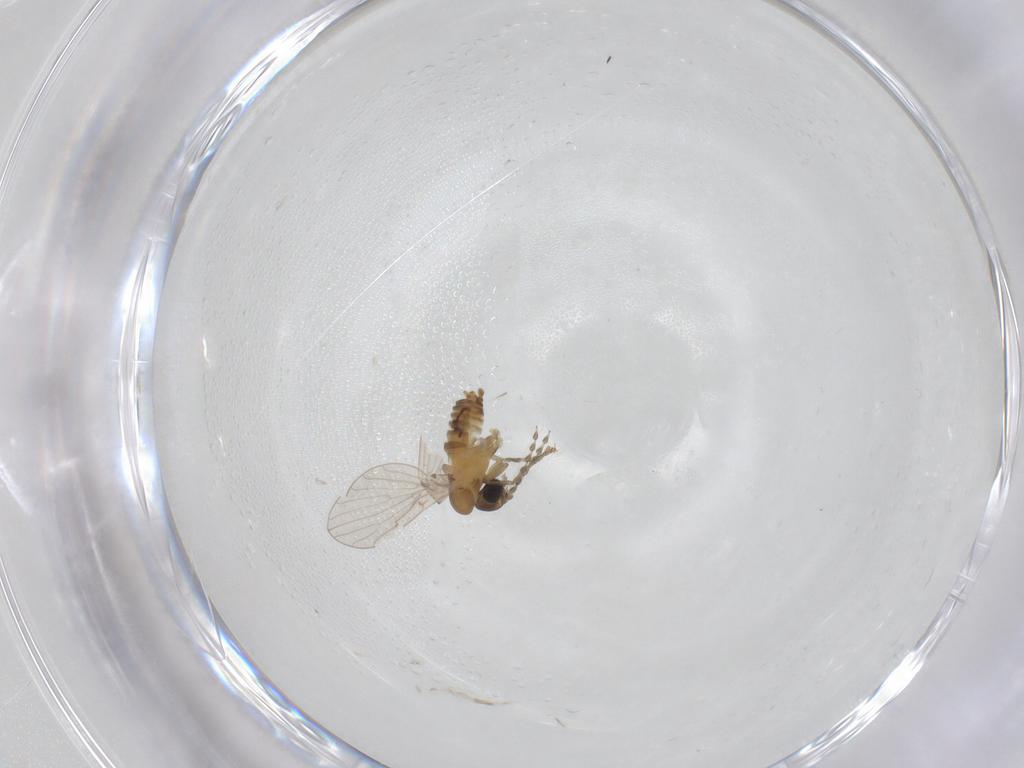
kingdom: Animalia
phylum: Arthropoda
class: Insecta
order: Diptera
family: Psychodidae
